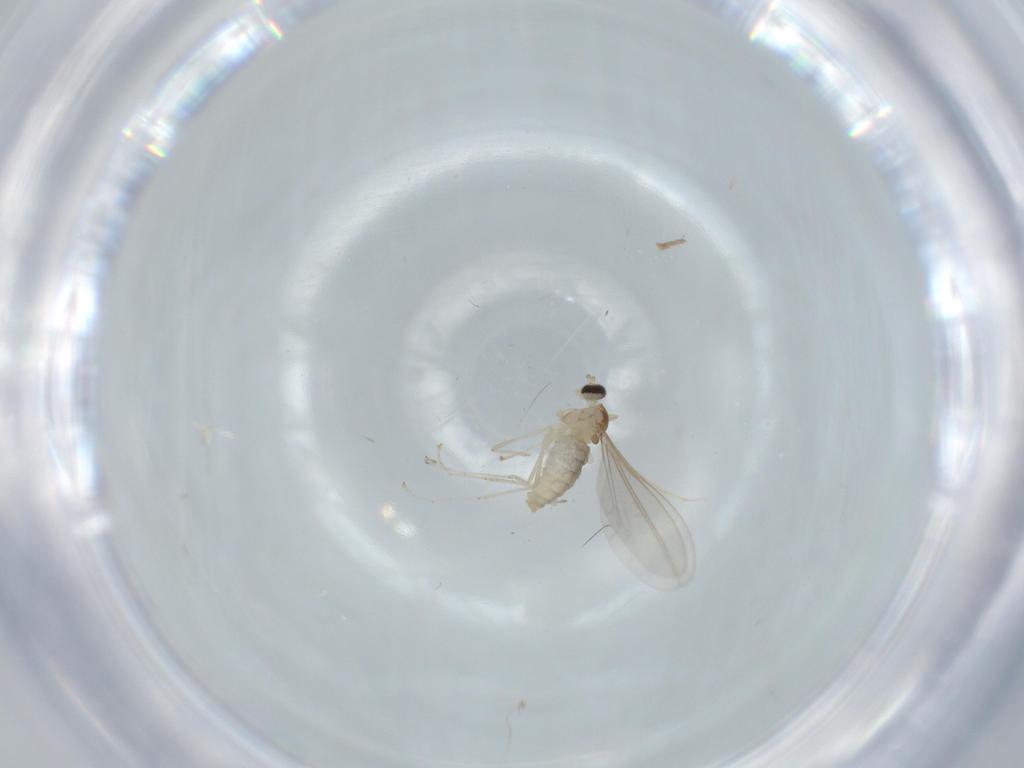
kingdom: Animalia
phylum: Arthropoda
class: Insecta
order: Diptera
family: Cecidomyiidae
